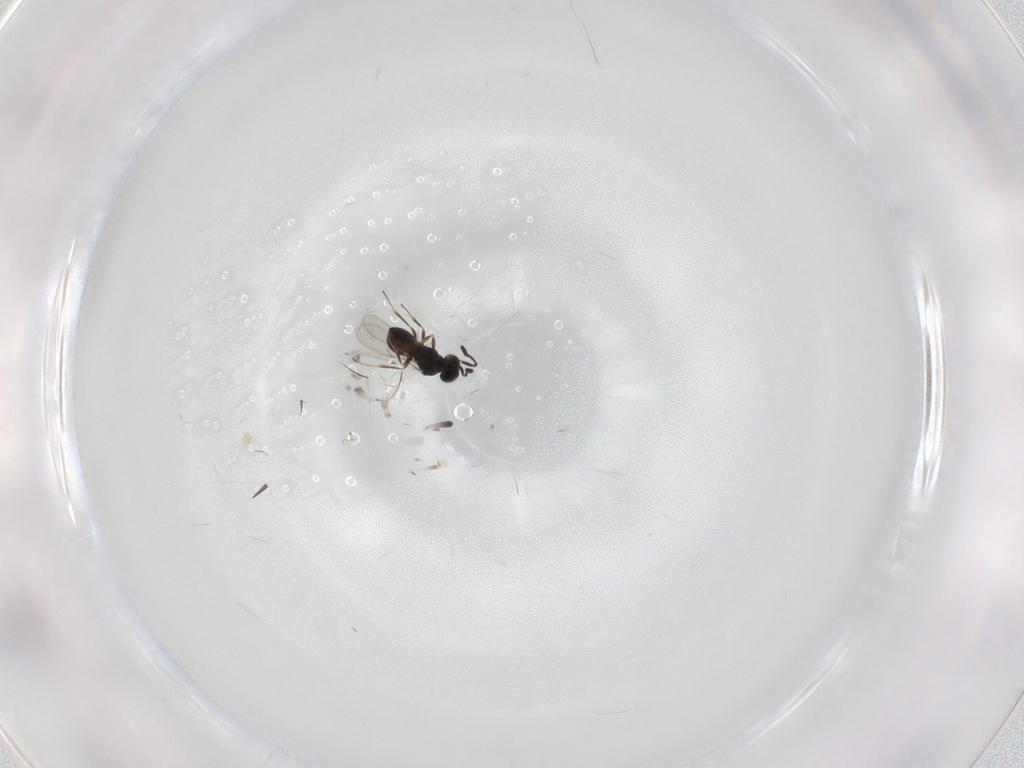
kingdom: Animalia
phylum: Arthropoda
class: Insecta
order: Hymenoptera
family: Scelionidae
